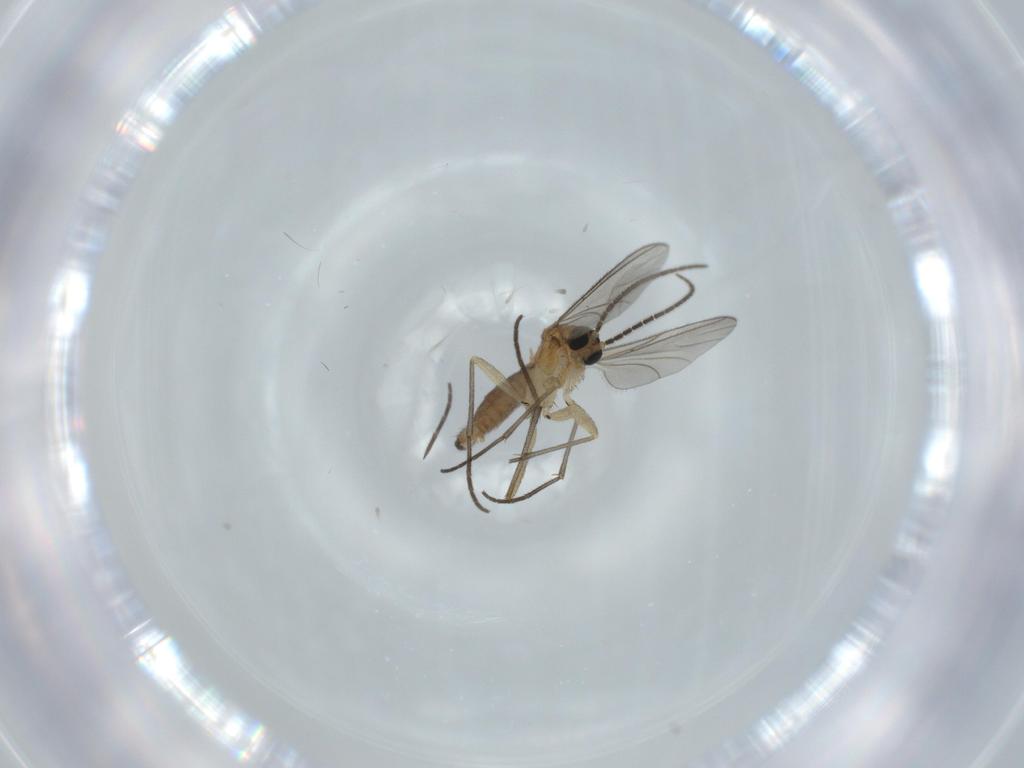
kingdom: Animalia
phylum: Arthropoda
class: Insecta
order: Diptera
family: Sciaridae
